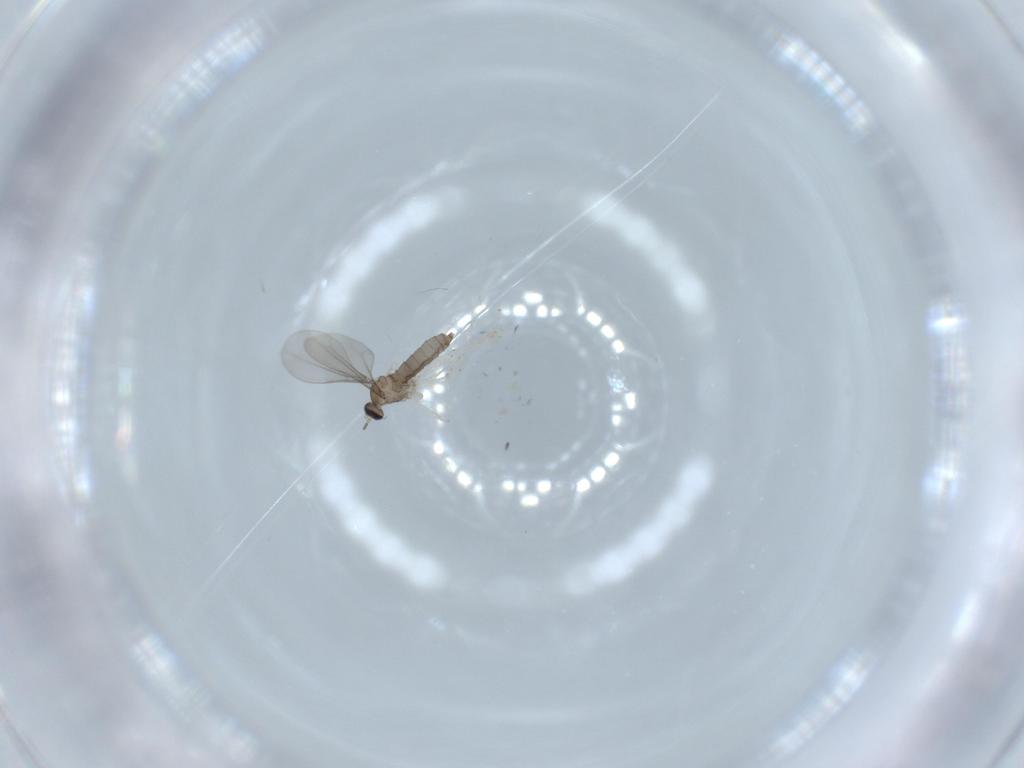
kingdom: Animalia
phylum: Arthropoda
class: Insecta
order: Diptera
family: Cecidomyiidae
